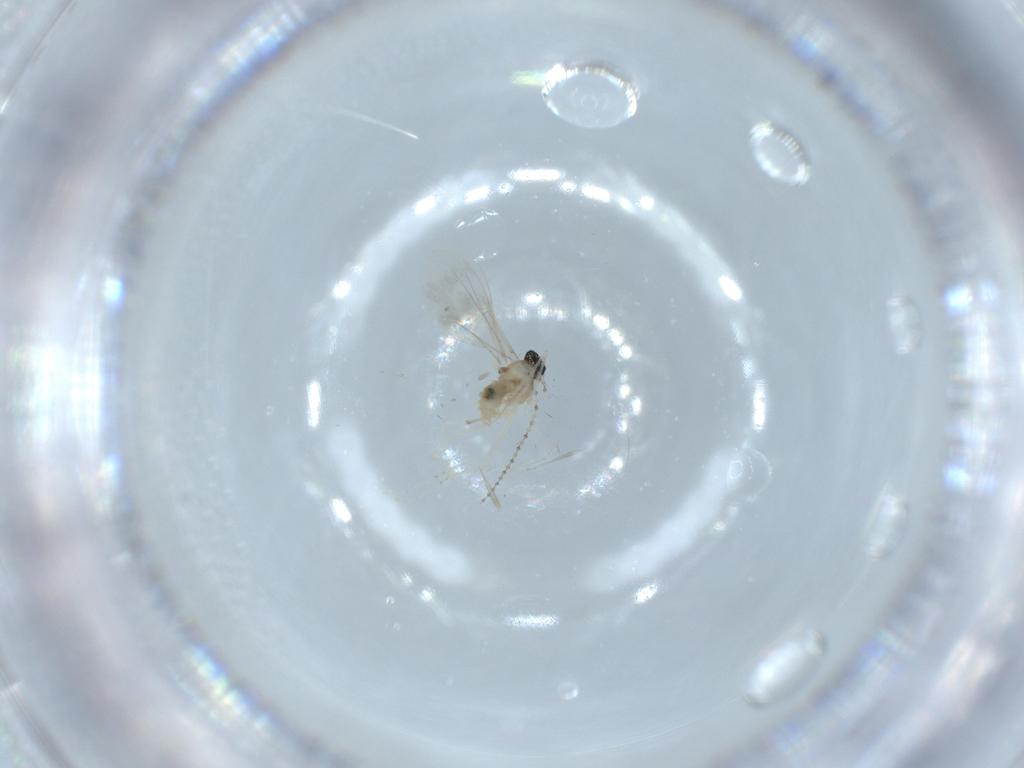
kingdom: Animalia
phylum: Arthropoda
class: Insecta
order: Diptera
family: Cecidomyiidae
